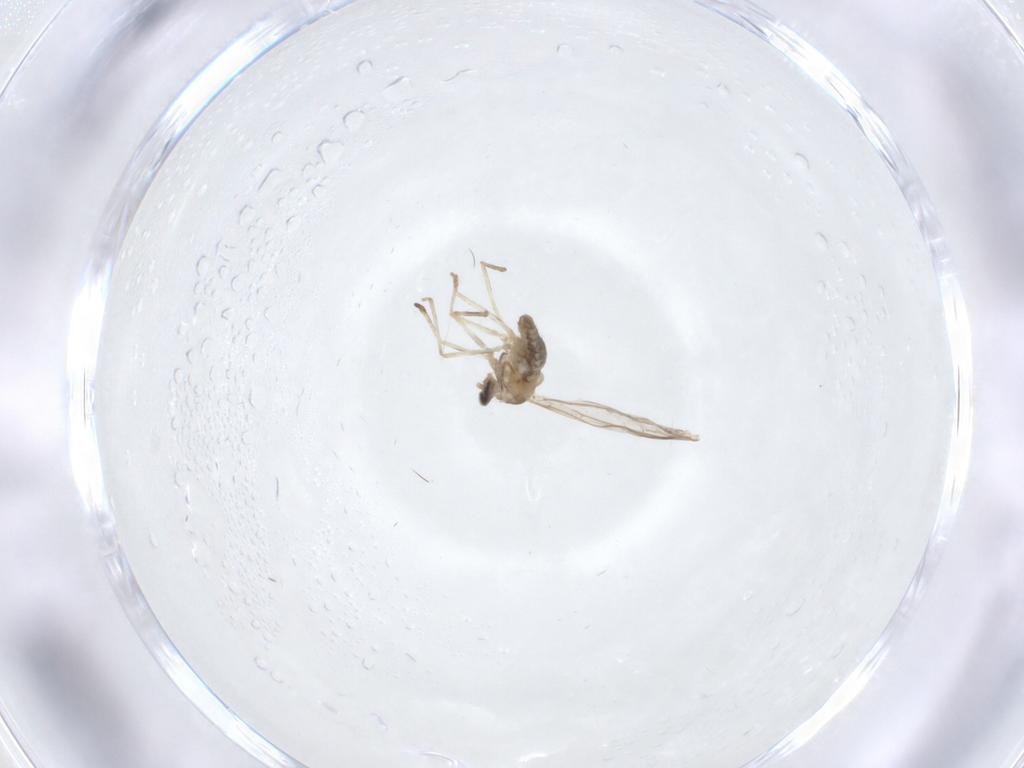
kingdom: Animalia
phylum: Arthropoda
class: Insecta
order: Diptera
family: Cecidomyiidae
